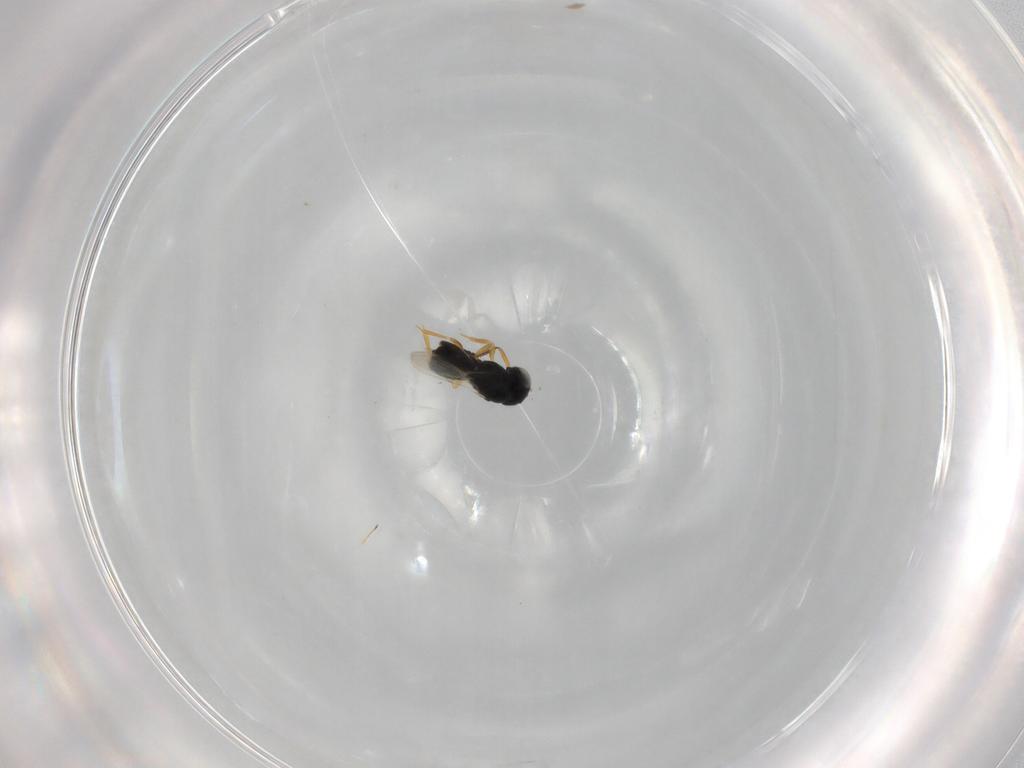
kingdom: Animalia
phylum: Arthropoda
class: Insecta
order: Hymenoptera
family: Scelionidae
